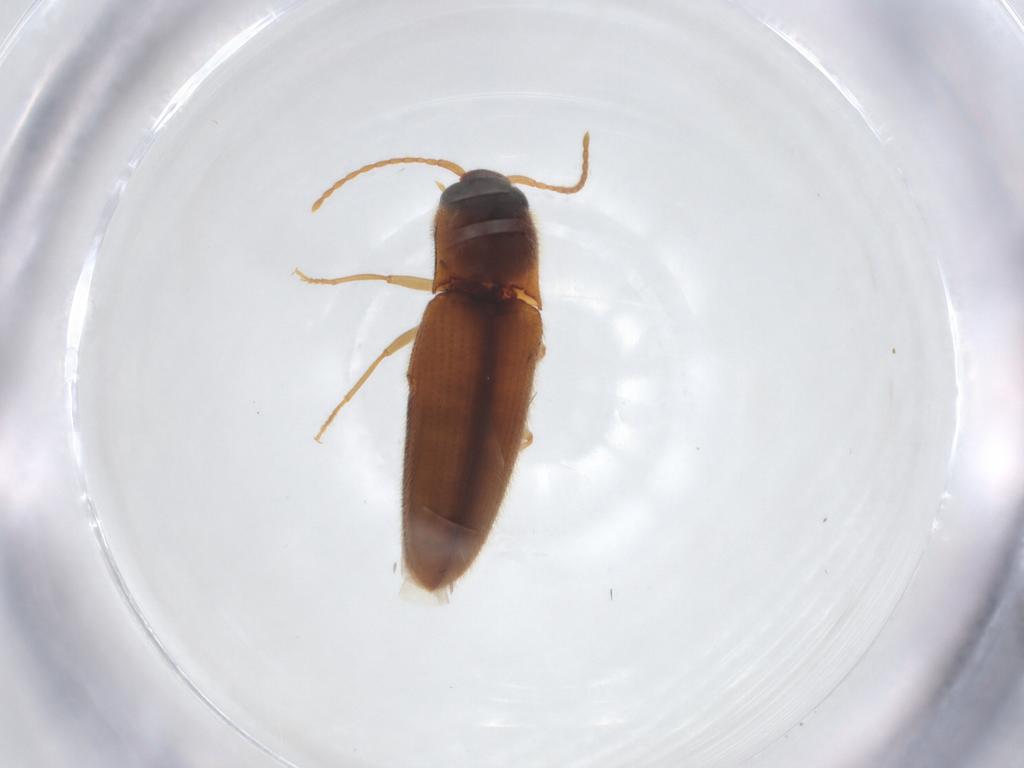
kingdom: Animalia
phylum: Arthropoda
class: Insecta
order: Coleoptera
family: Elateridae
